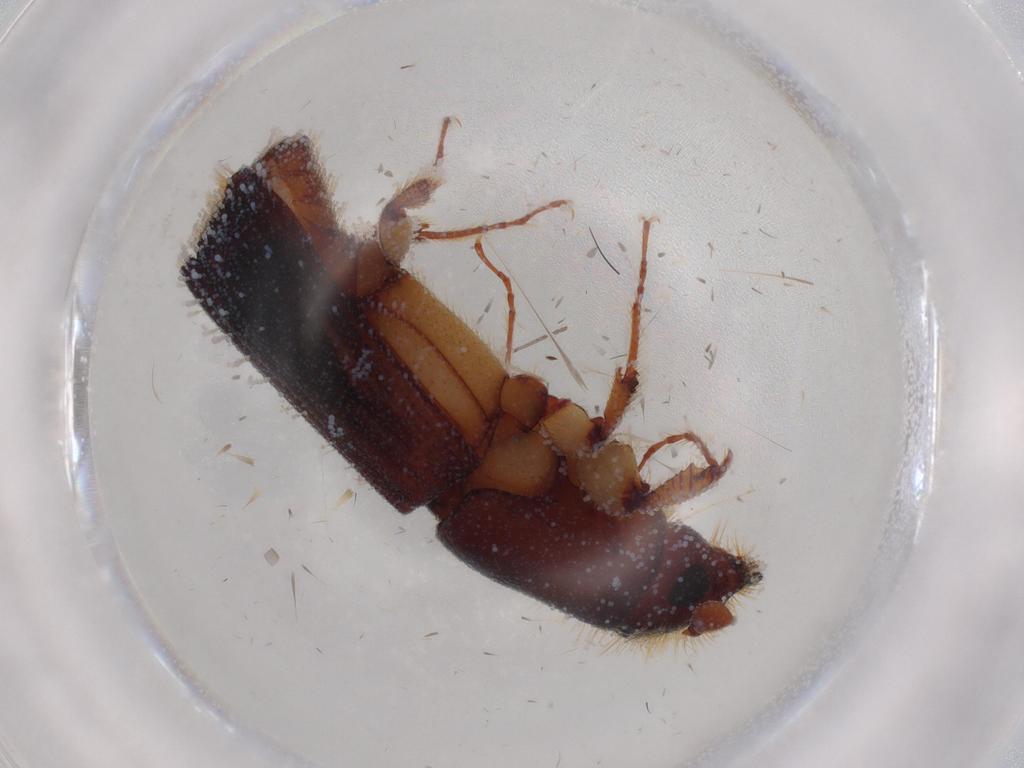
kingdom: Animalia
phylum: Arthropoda
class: Insecta
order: Coleoptera
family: Curculionidae
